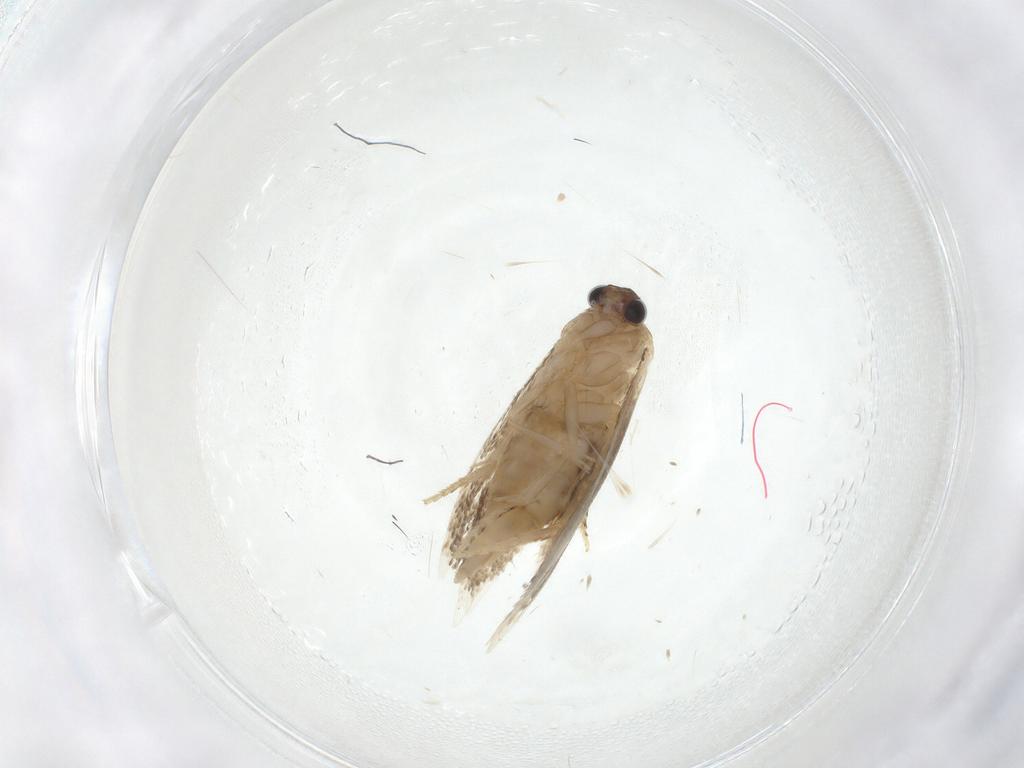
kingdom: Animalia
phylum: Arthropoda
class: Insecta
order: Lepidoptera
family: Tineidae
